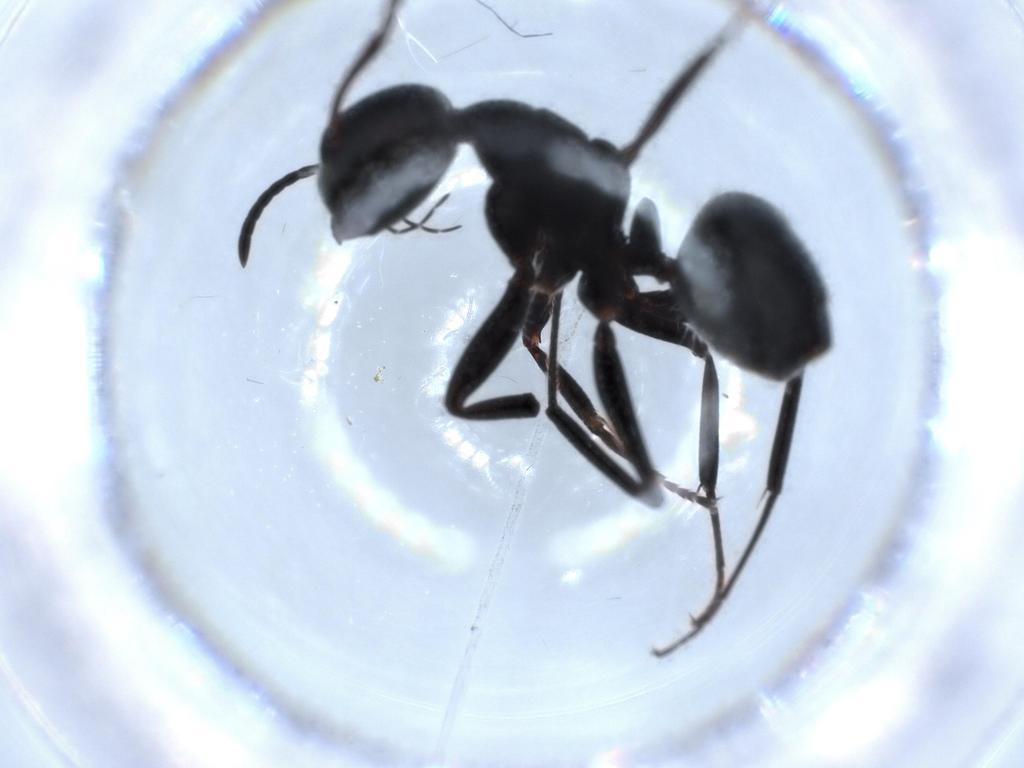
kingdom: Animalia
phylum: Arthropoda
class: Insecta
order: Hymenoptera
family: Formicidae
